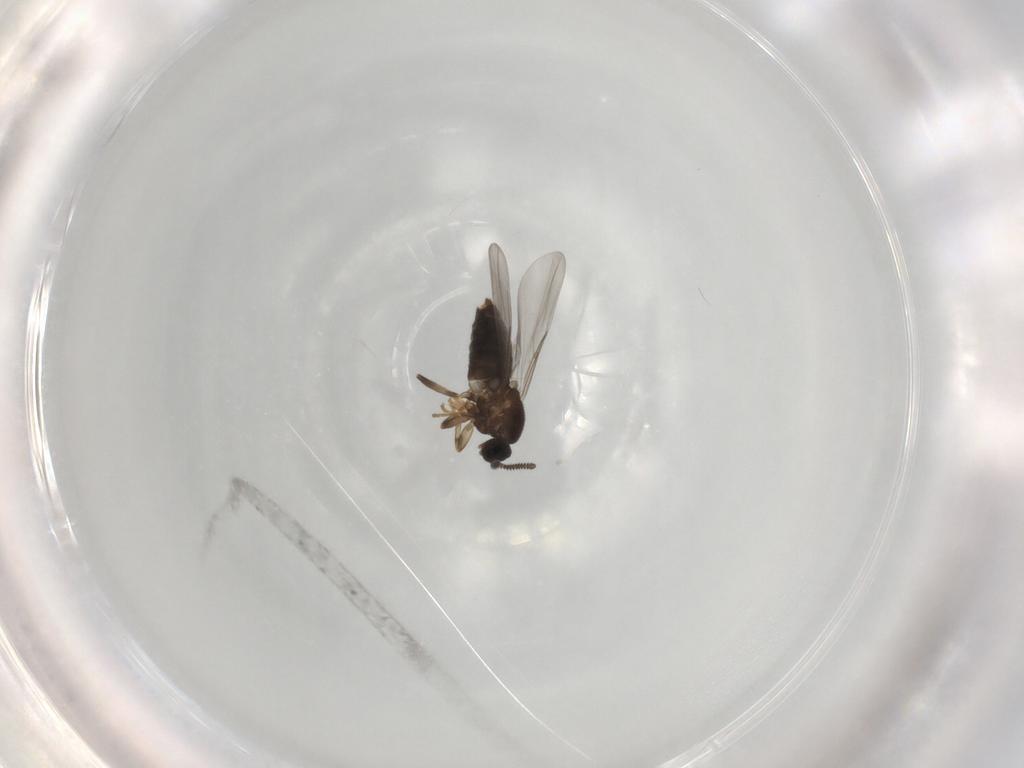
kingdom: Animalia
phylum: Arthropoda
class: Insecta
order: Diptera
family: Scatopsidae
